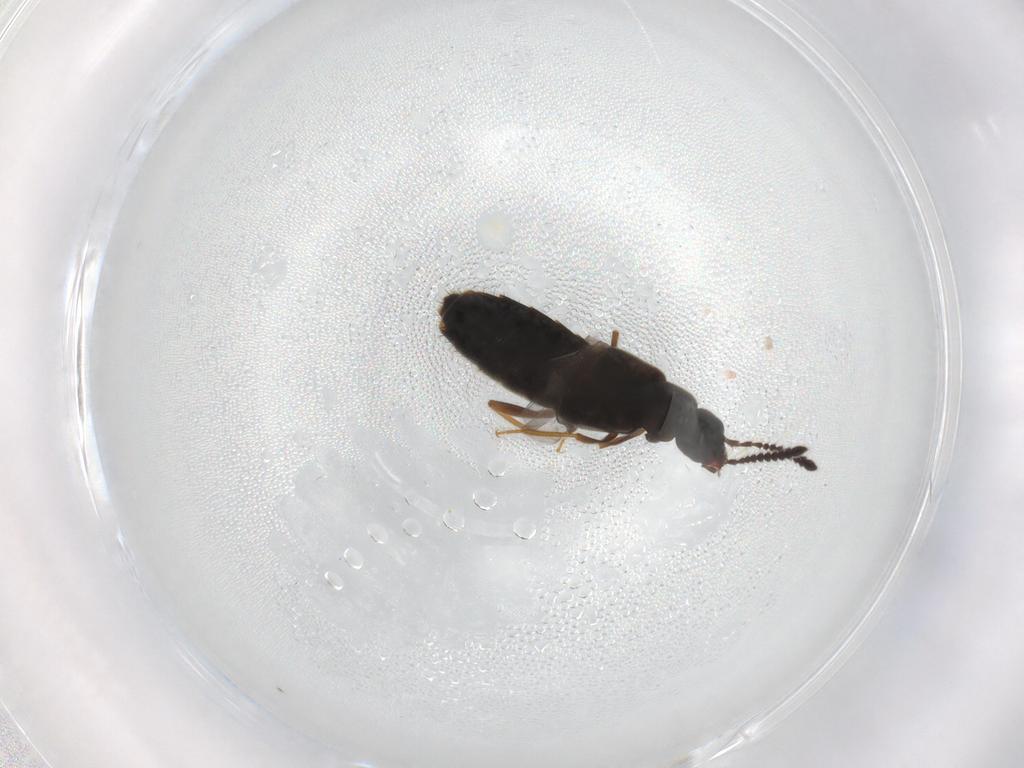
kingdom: Animalia
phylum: Arthropoda
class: Insecta
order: Coleoptera
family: Staphylinidae
